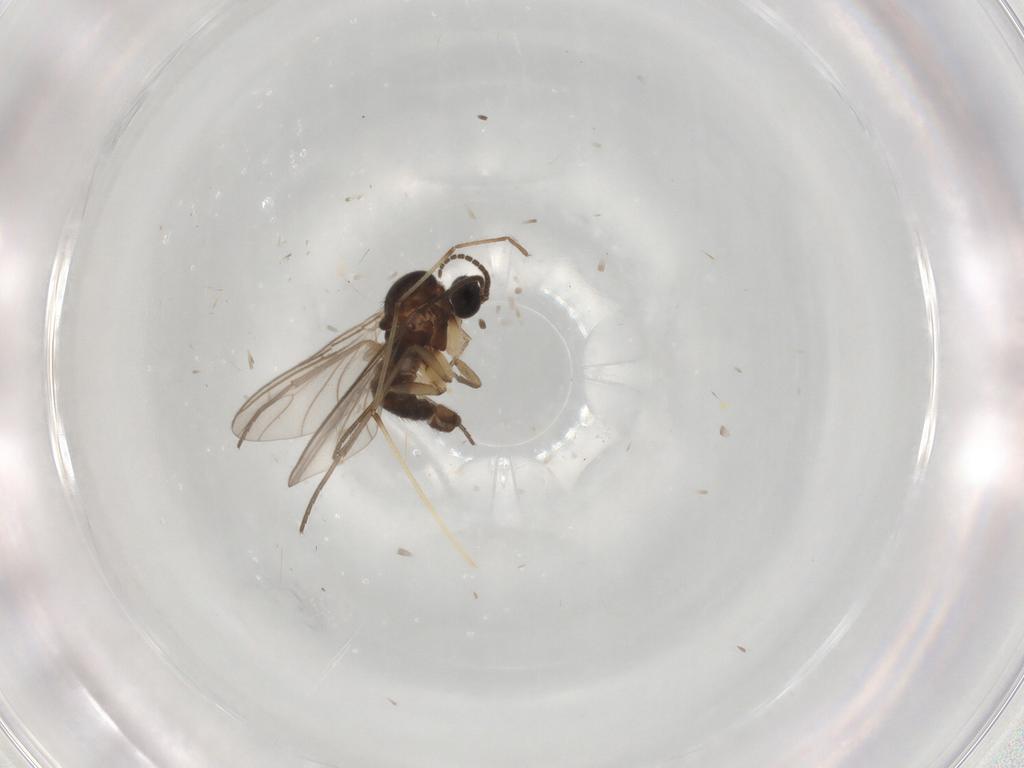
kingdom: Animalia
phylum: Arthropoda
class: Insecta
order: Diptera
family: Sciaridae
